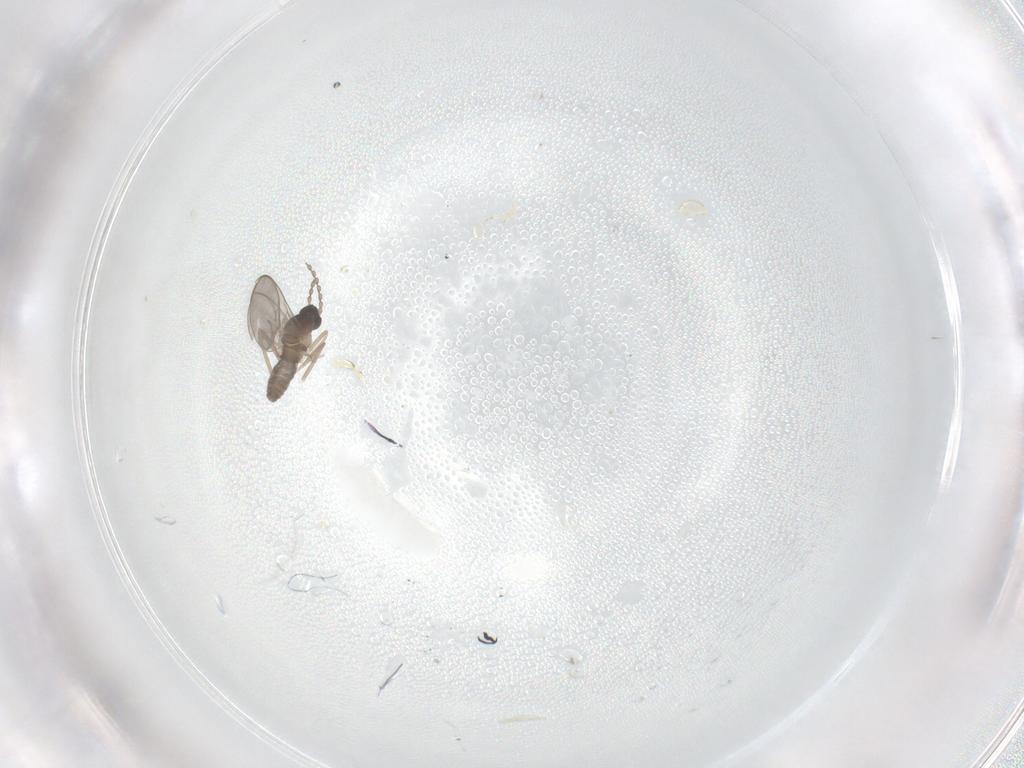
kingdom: Animalia
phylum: Arthropoda
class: Insecta
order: Diptera
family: Cecidomyiidae
